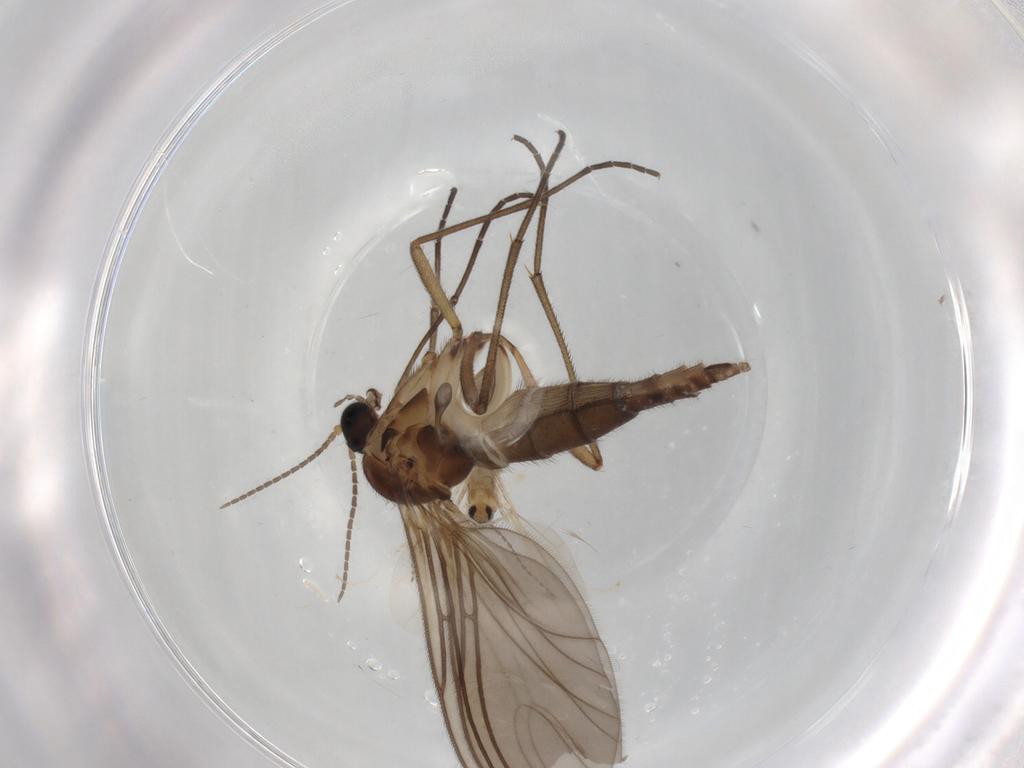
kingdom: Animalia
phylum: Arthropoda
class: Insecta
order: Diptera
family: Sciaridae
